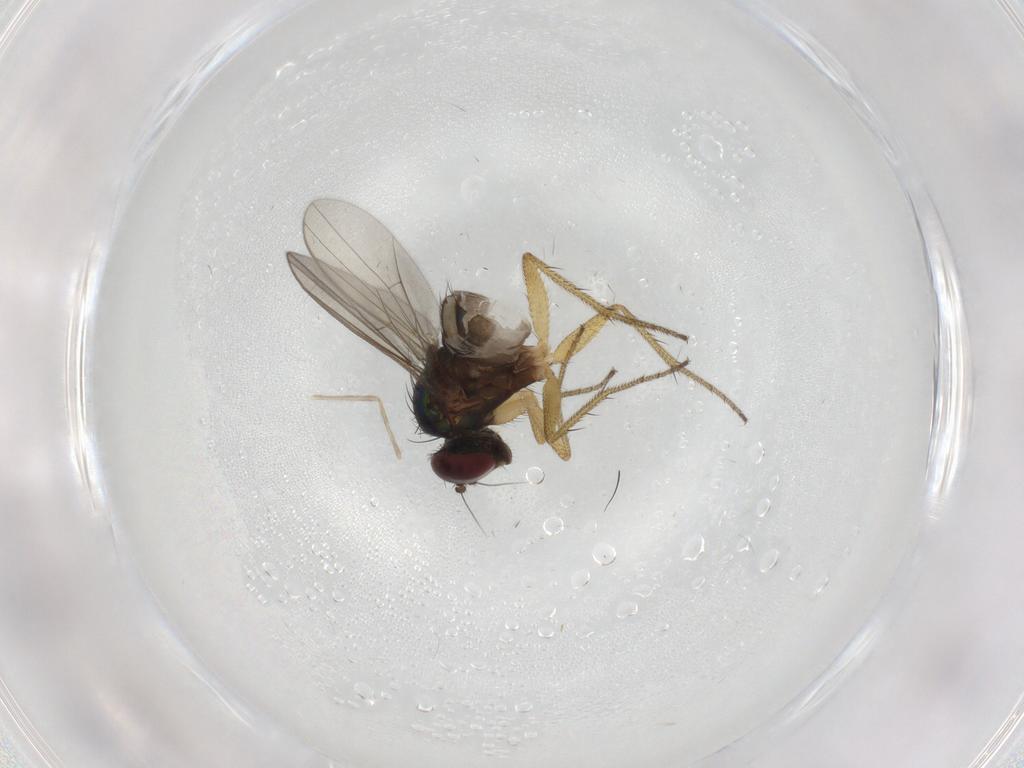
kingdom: Animalia
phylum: Arthropoda
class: Insecta
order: Diptera
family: Dolichopodidae
